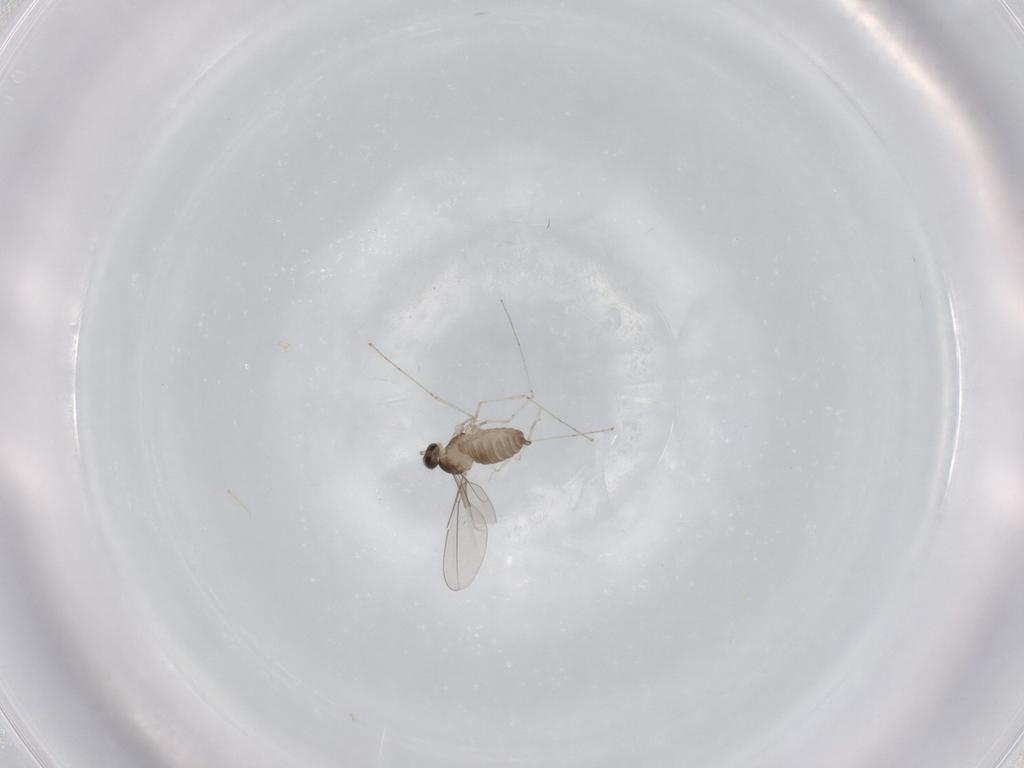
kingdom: Animalia
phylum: Arthropoda
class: Insecta
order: Diptera
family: Cecidomyiidae
